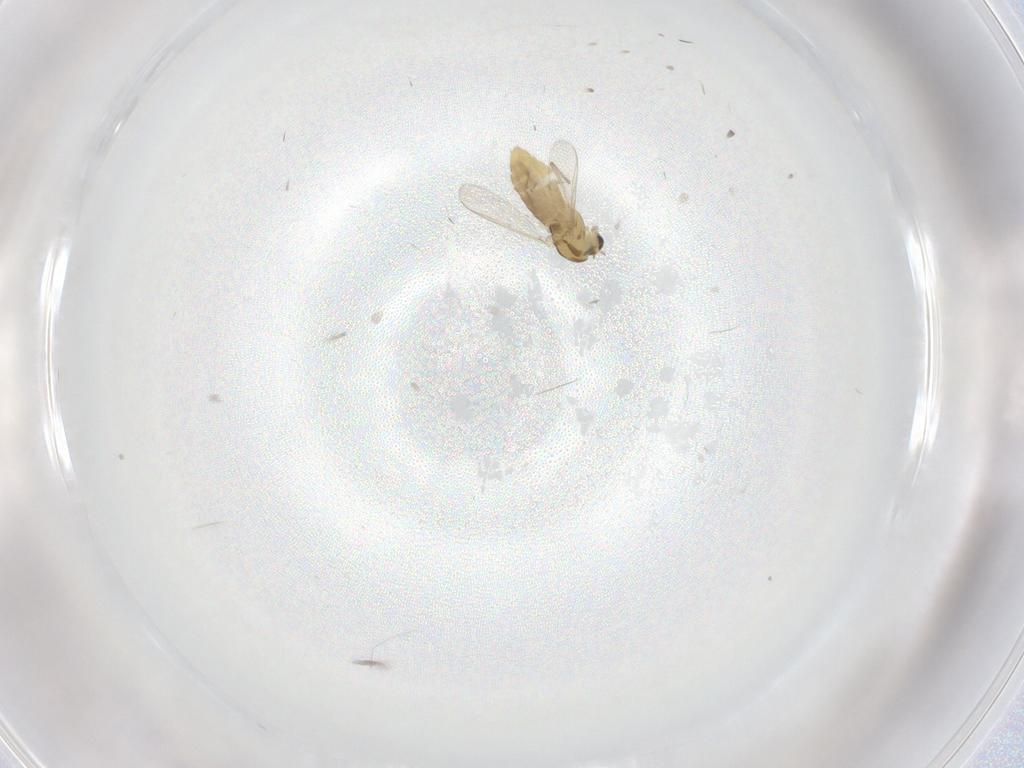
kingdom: Animalia
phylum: Arthropoda
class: Insecta
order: Diptera
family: Chironomidae
